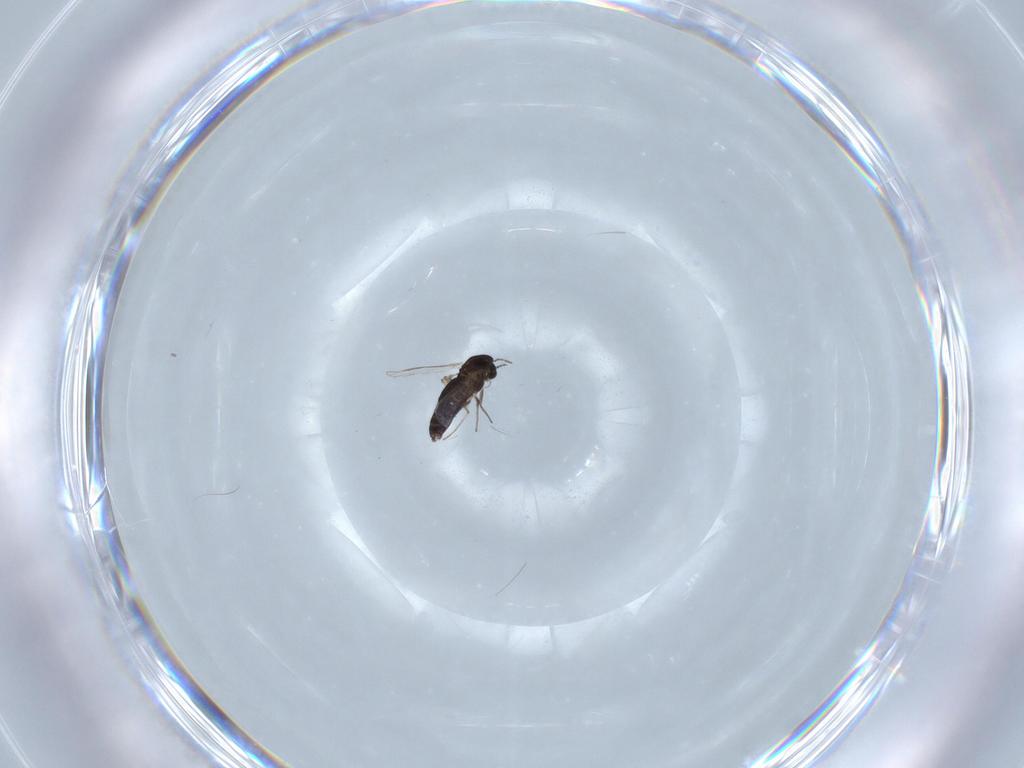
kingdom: Animalia
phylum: Arthropoda
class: Insecta
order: Diptera
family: Chironomidae
